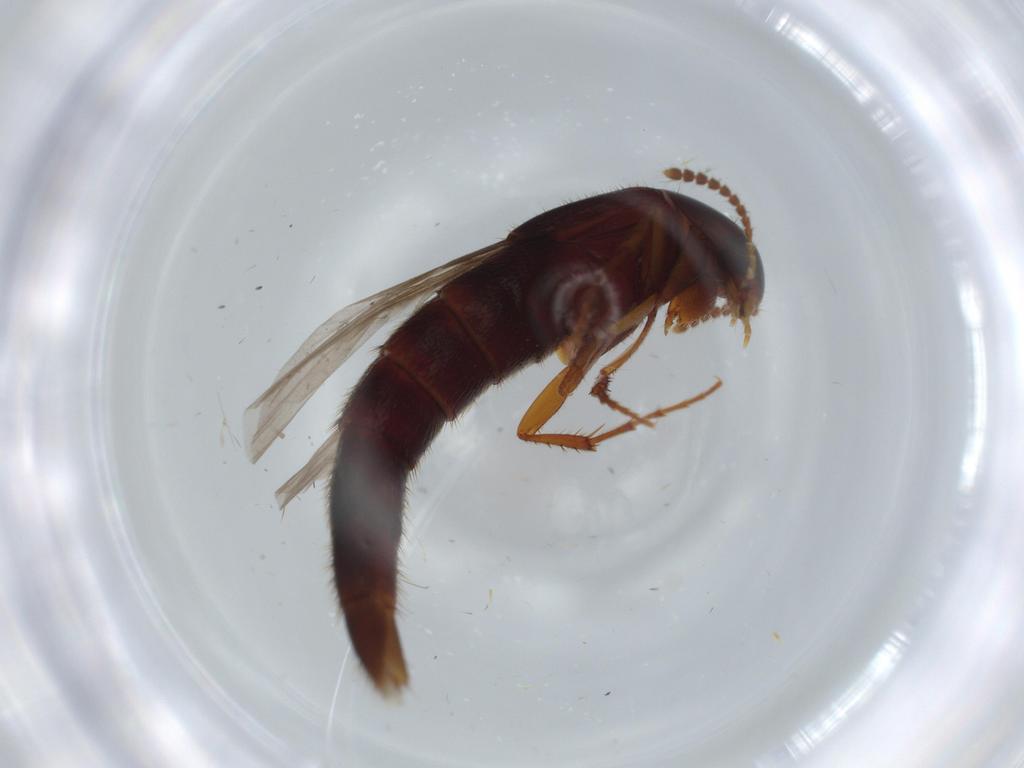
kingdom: Animalia
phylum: Arthropoda
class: Insecta
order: Coleoptera
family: Staphylinidae
